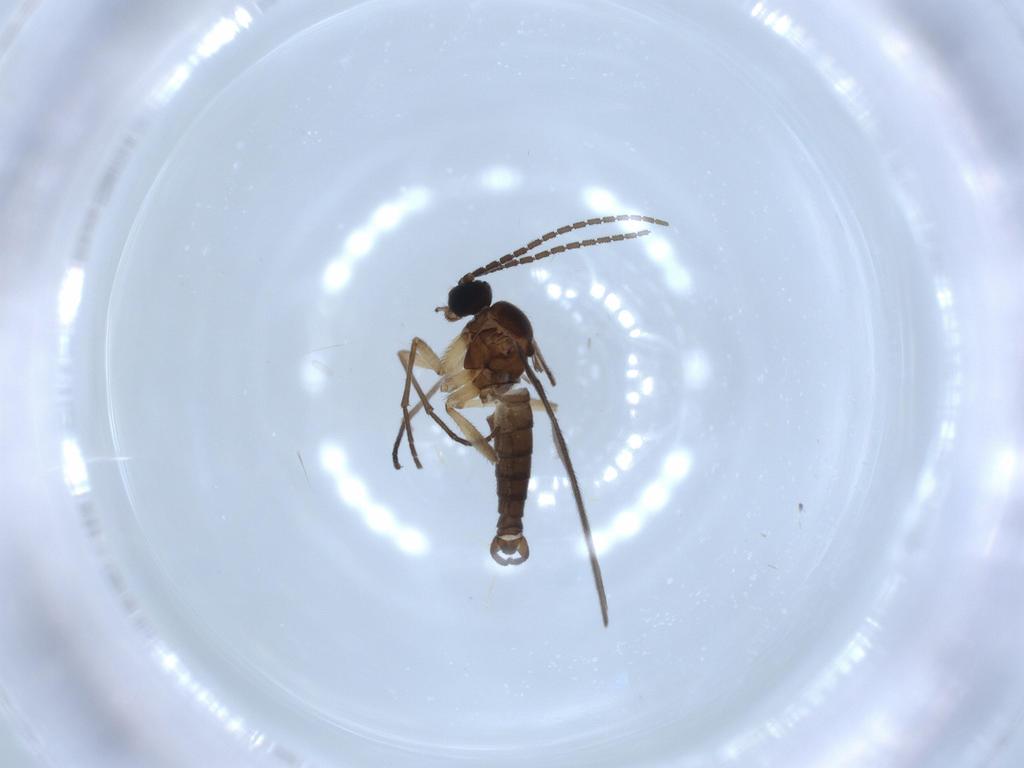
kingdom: Animalia
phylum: Arthropoda
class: Insecta
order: Diptera
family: Sciaridae
